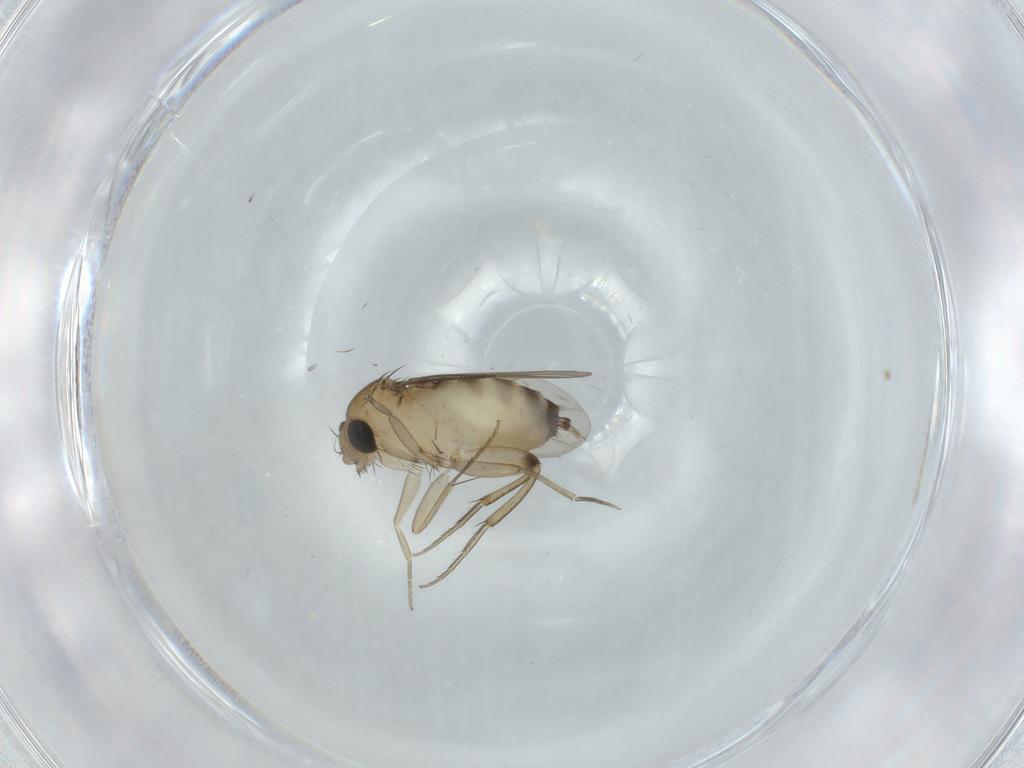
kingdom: Animalia
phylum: Arthropoda
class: Insecta
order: Diptera
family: Phoridae
